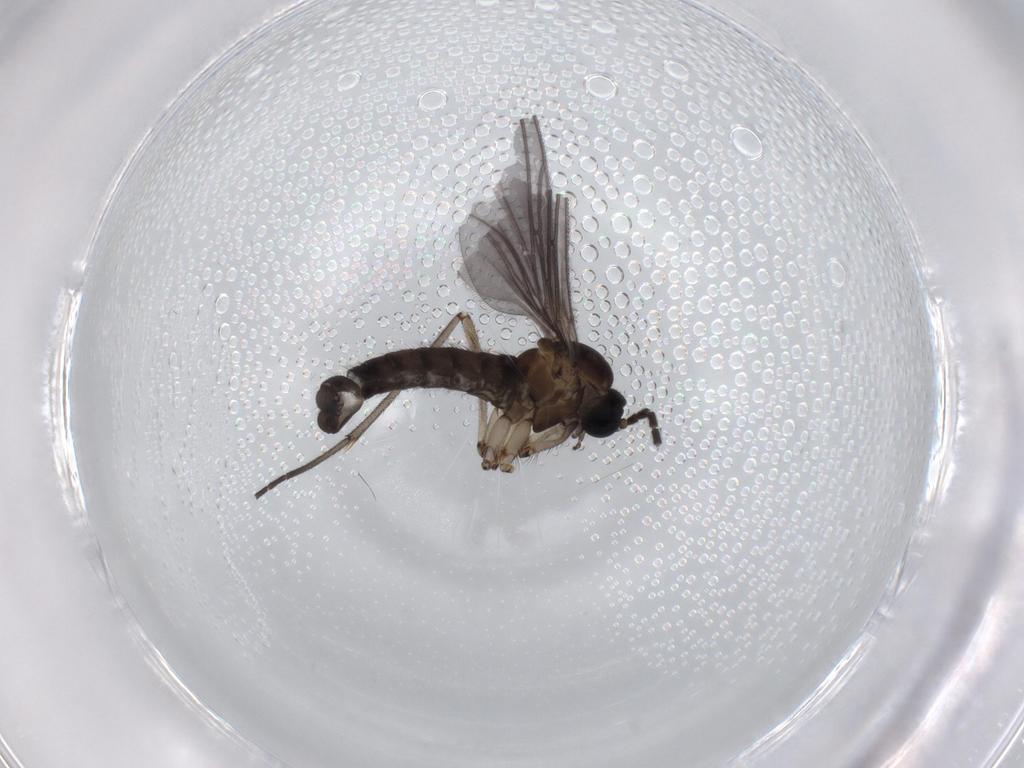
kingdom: Animalia
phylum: Arthropoda
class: Insecta
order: Diptera
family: Sciaridae
